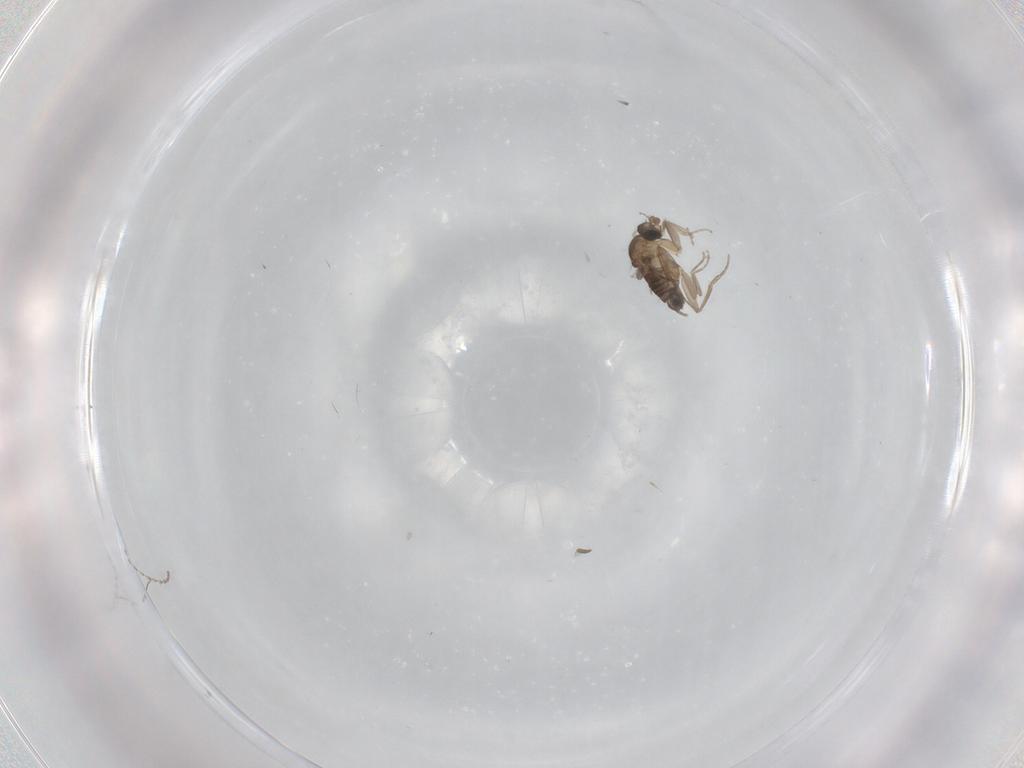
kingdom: Animalia
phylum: Arthropoda
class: Insecta
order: Diptera
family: Phoridae
